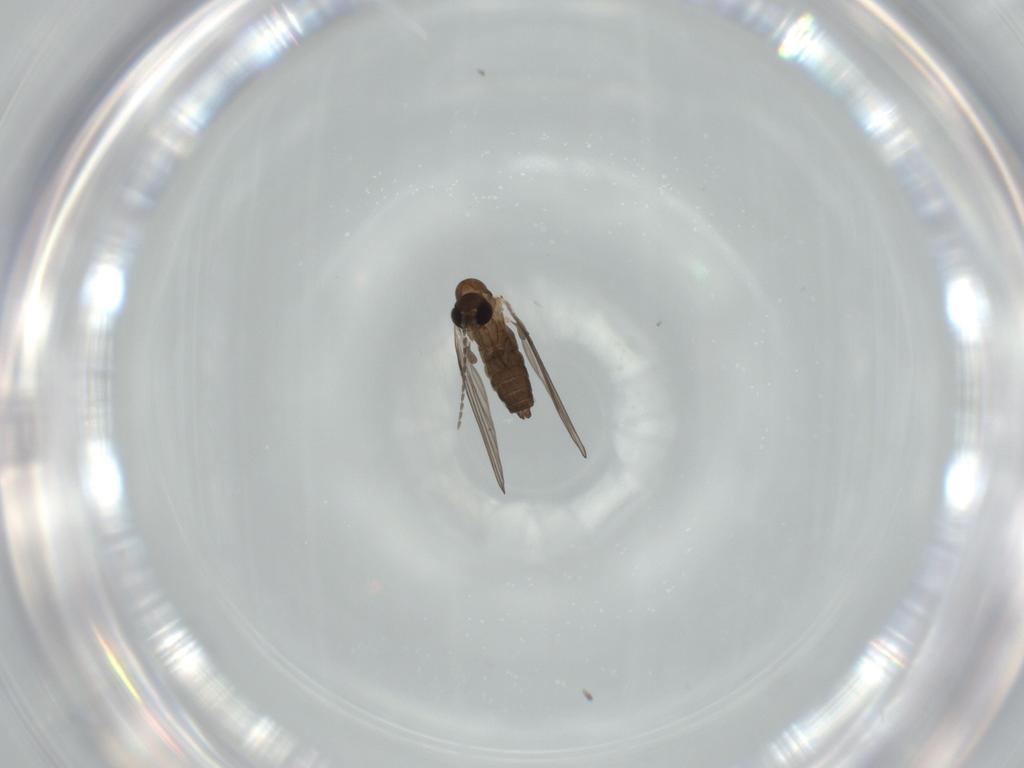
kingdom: Animalia
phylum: Arthropoda
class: Insecta
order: Diptera
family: Psychodidae
